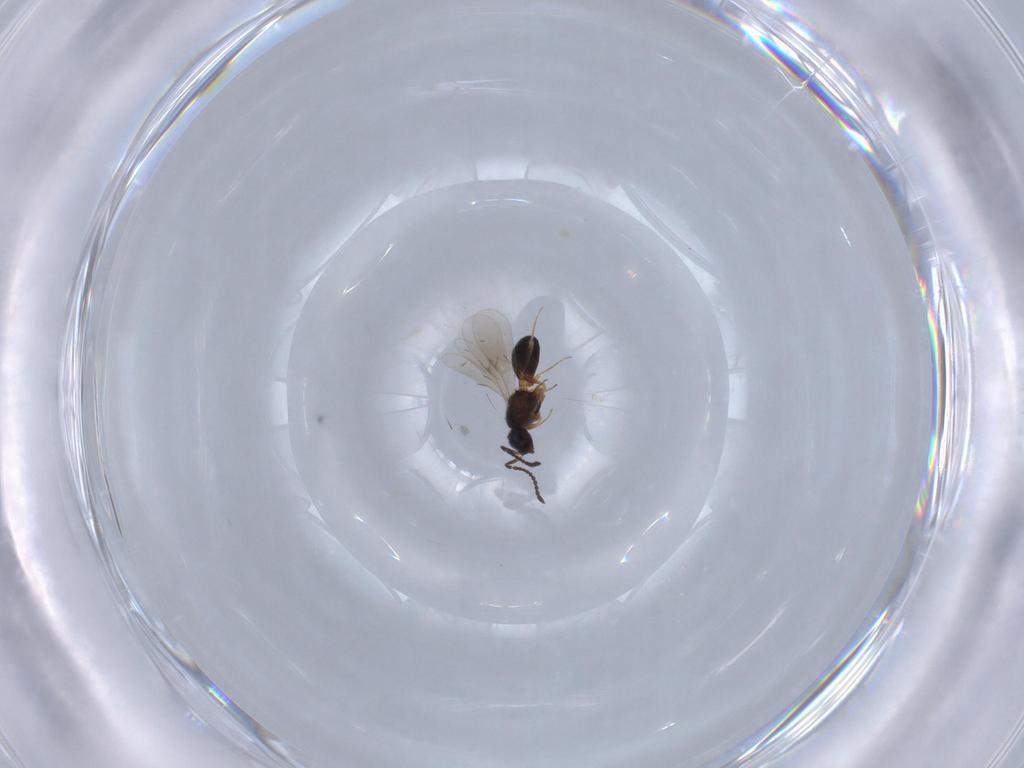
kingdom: Animalia
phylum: Arthropoda
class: Insecta
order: Hymenoptera
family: Scelionidae
